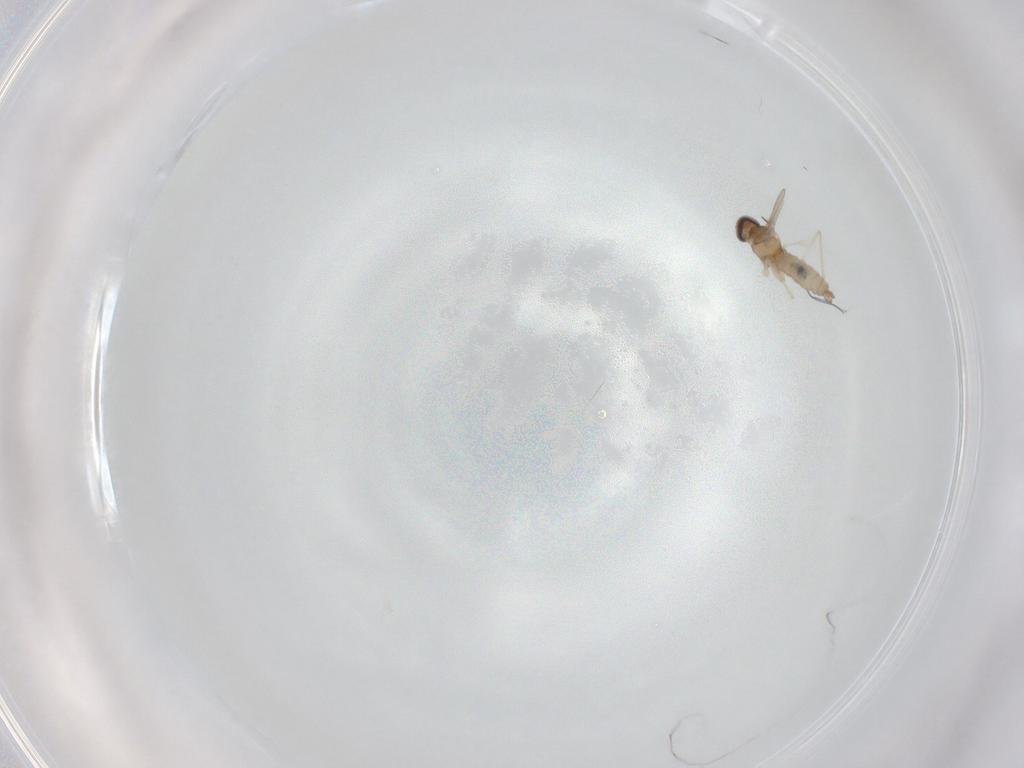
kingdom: Animalia
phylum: Arthropoda
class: Insecta
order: Diptera
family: Cecidomyiidae
